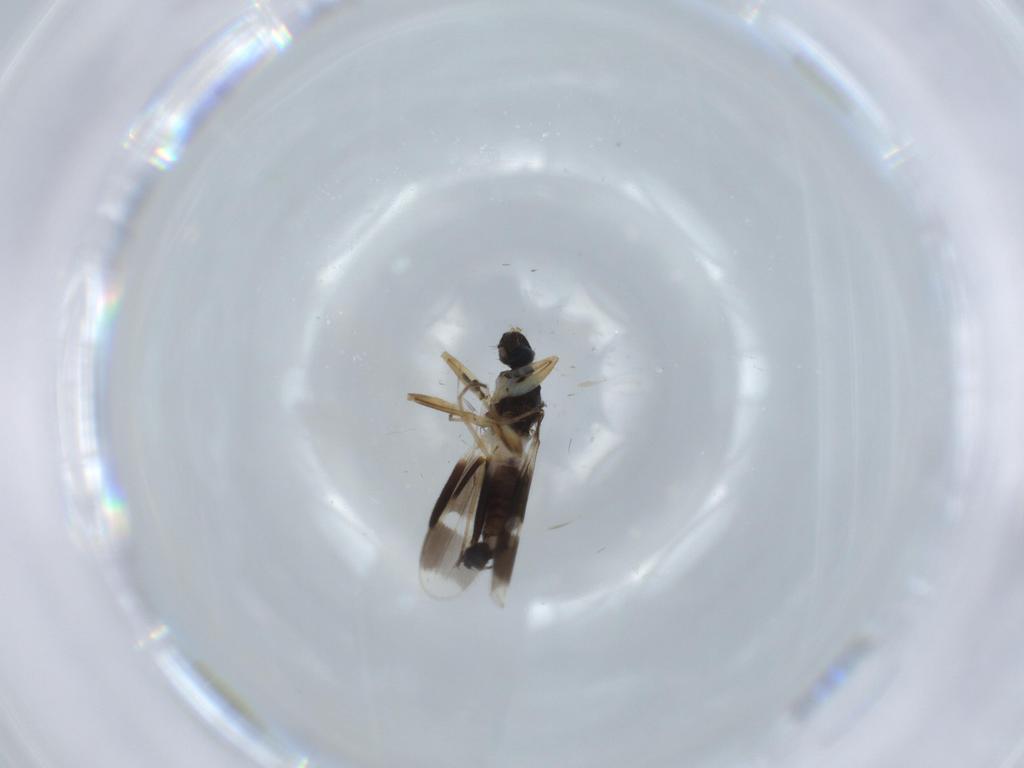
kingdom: Animalia
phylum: Arthropoda
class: Insecta
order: Diptera
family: Hybotidae
